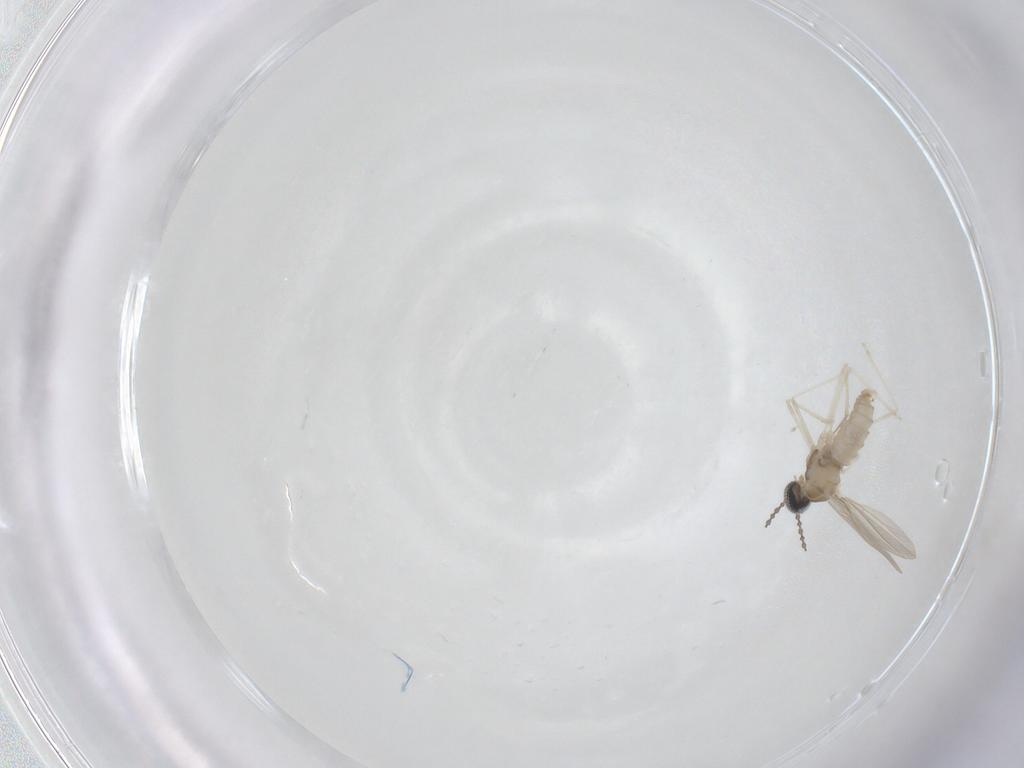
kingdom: Animalia
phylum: Arthropoda
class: Insecta
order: Diptera
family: Cecidomyiidae
